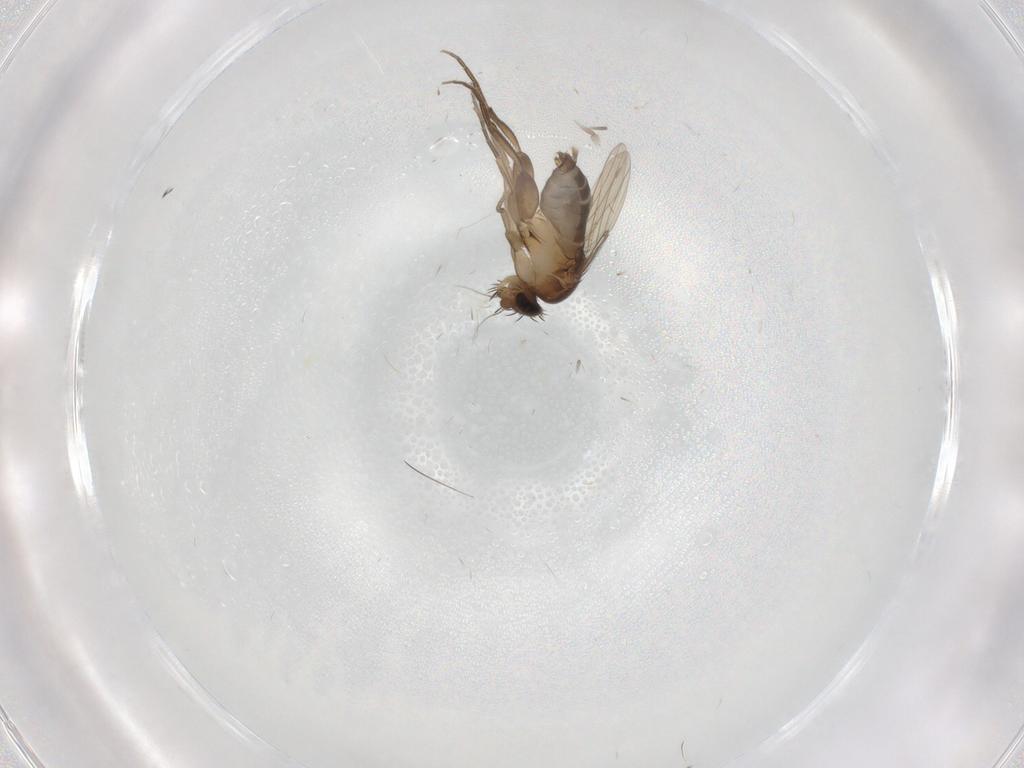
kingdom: Animalia
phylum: Arthropoda
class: Insecta
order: Diptera
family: Phoridae
